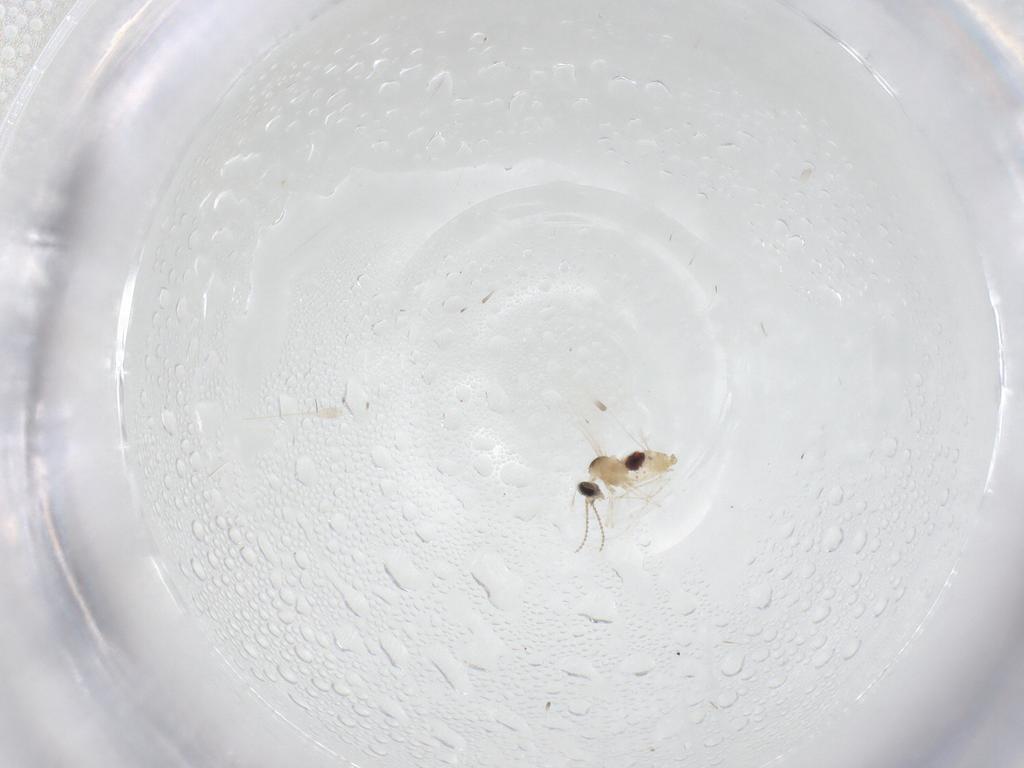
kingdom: Animalia
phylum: Arthropoda
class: Insecta
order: Diptera
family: Cecidomyiidae
